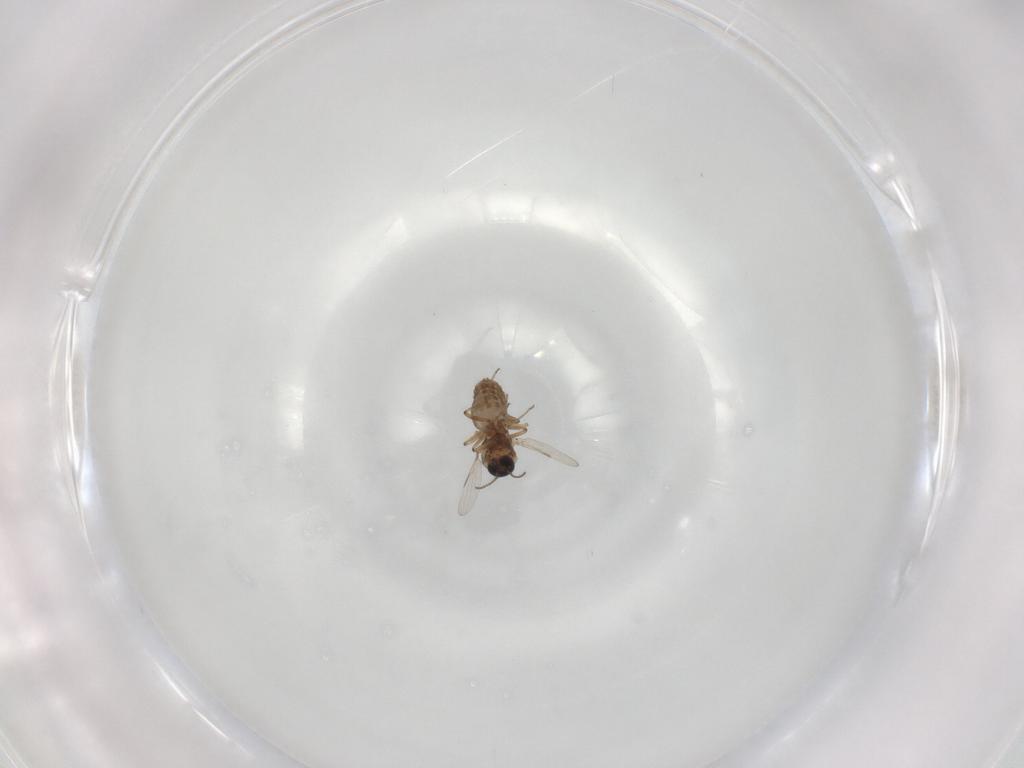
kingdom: Animalia
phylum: Arthropoda
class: Insecta
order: Diptera
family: Ceratopogonidae
